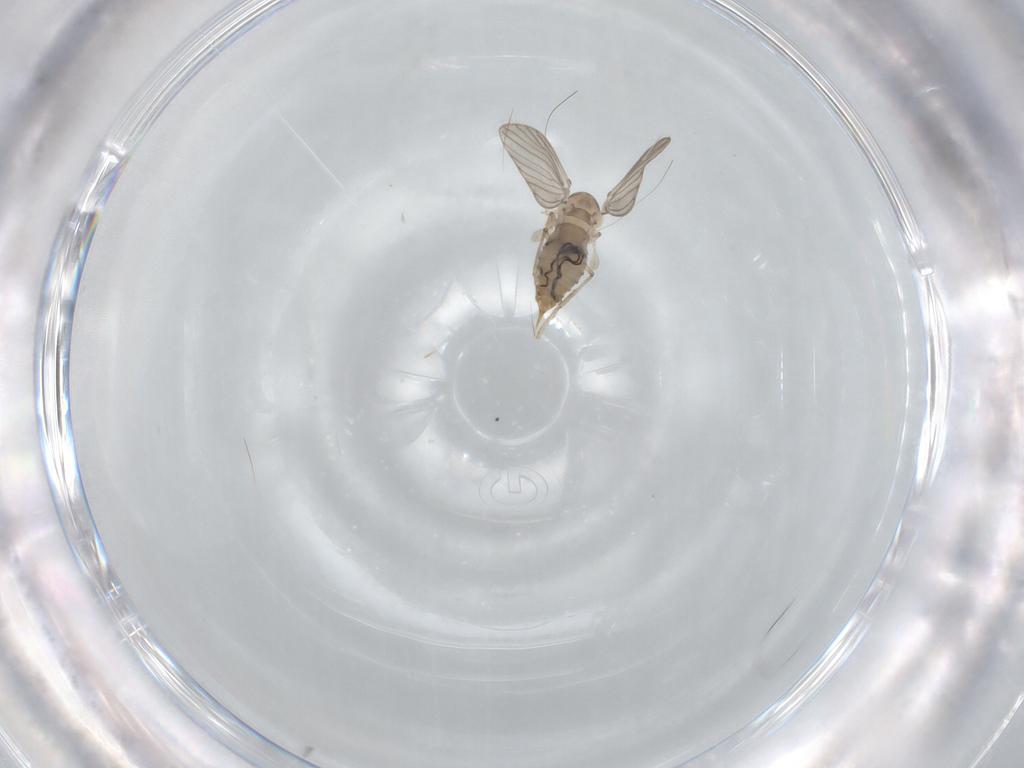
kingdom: Animalia
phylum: Arthropoda
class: Insecta
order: Diptera
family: Psychodidae
